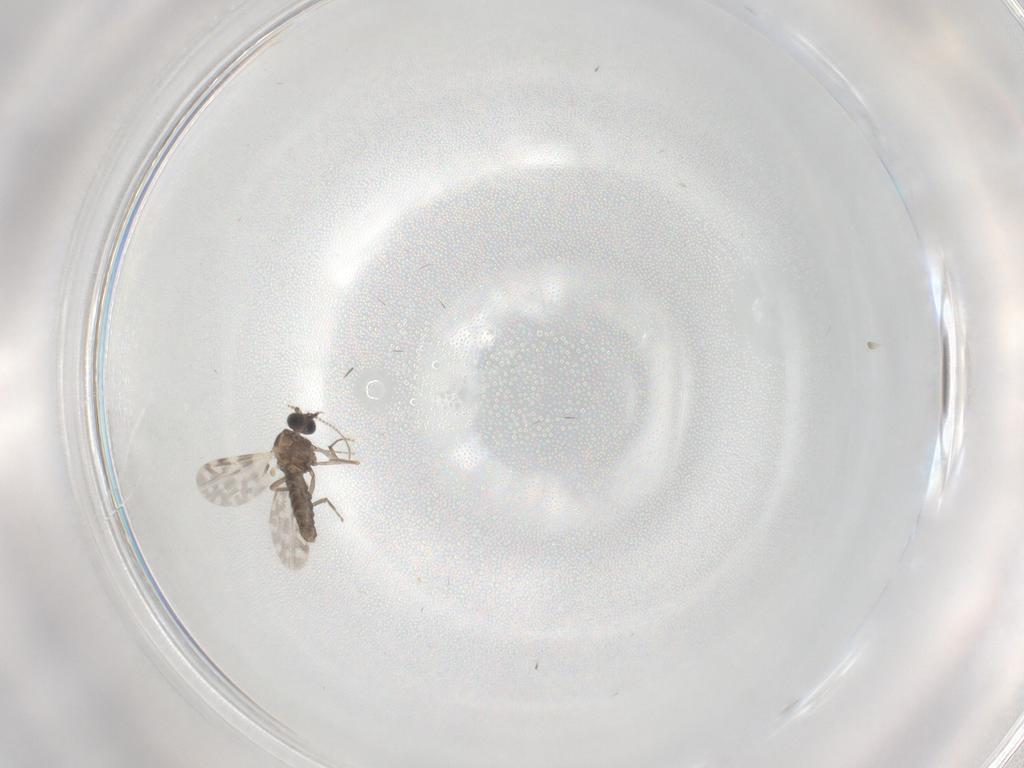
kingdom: Animalia
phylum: Arthropoda
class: Insecta
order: Diptera
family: Ceratopogonidae
